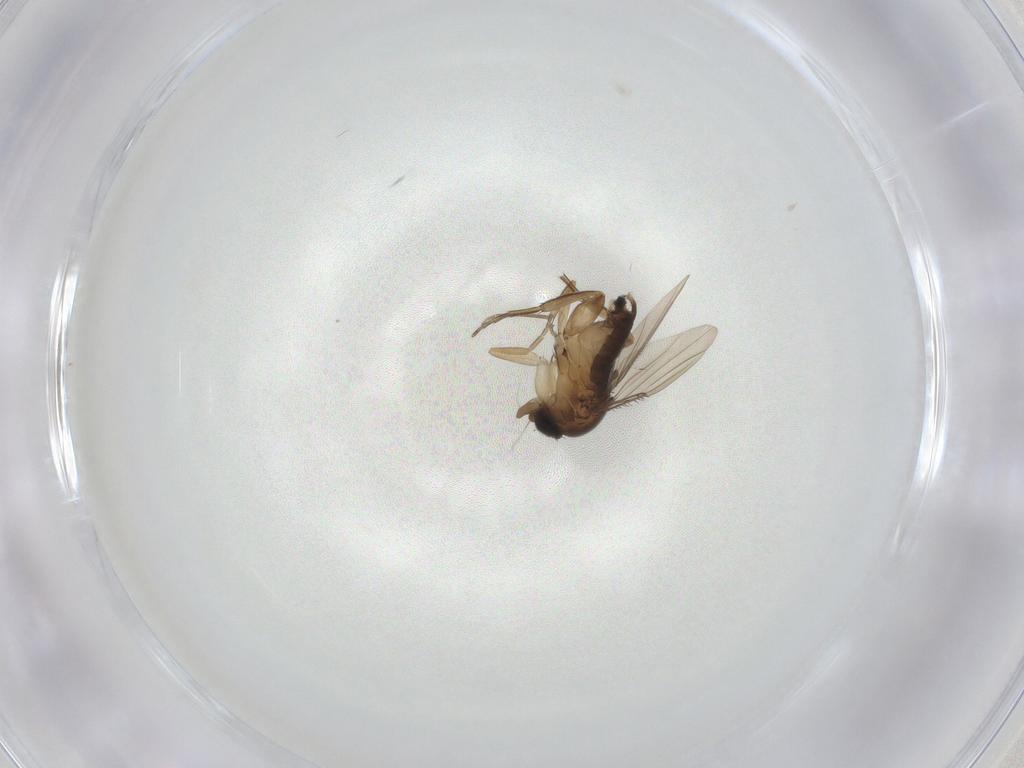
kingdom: Animalia
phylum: Arthropoda
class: Insecta
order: Diptera
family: Phoridae
